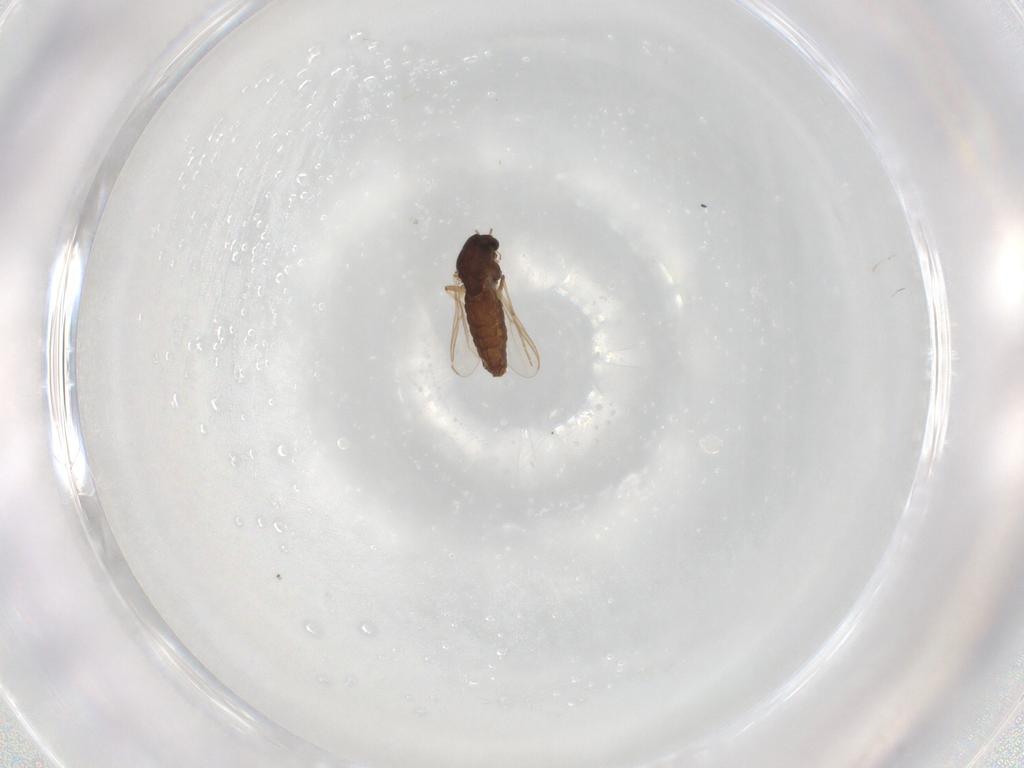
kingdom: Animalia
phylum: Arthropoda
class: Insecta
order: Diptera
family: Chironomidae
